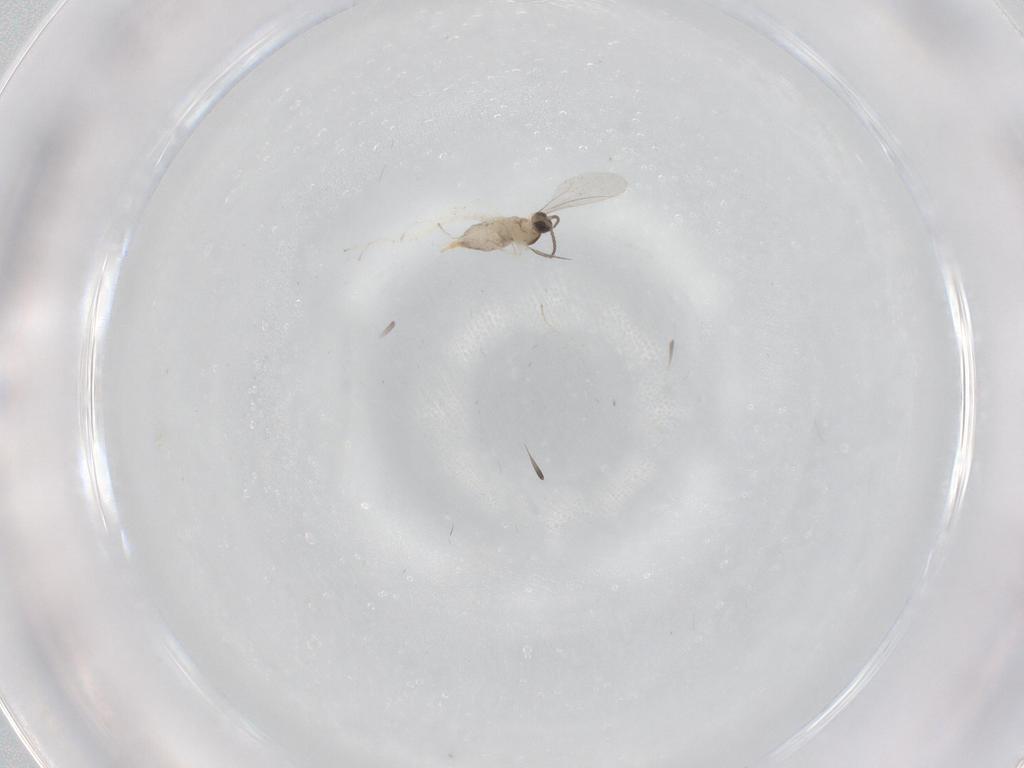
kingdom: Animalia
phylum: Arthropoda
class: Insecta
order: Diptera
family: Cecidomyiidae
